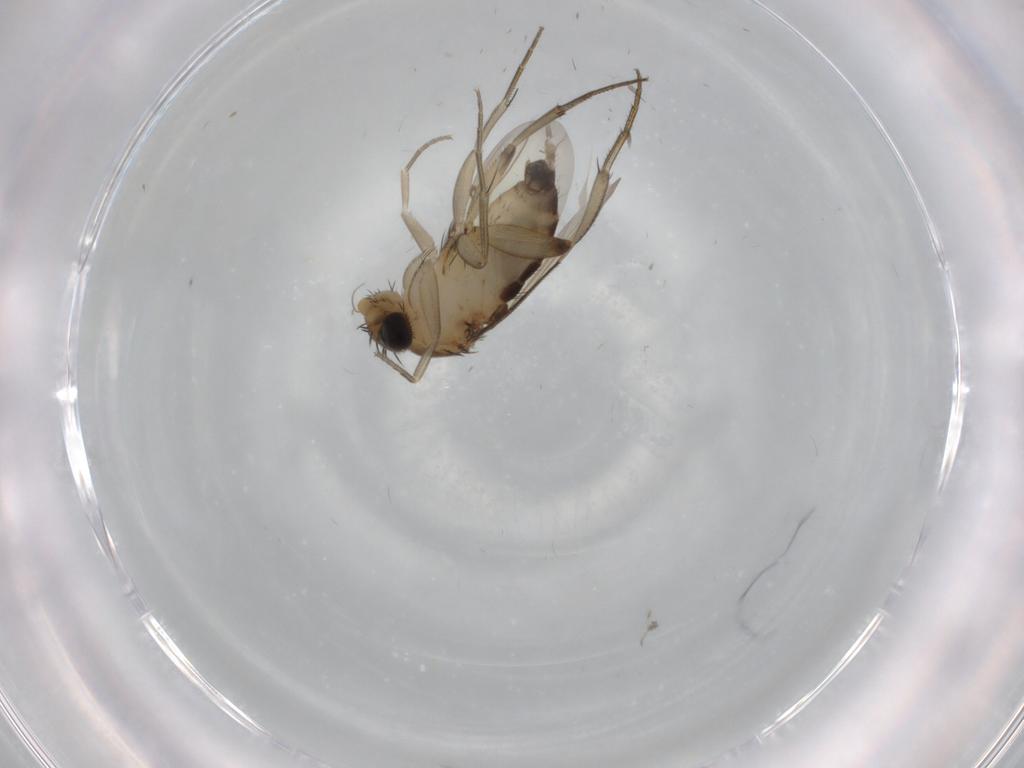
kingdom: Animalia
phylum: Arthropoda
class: Insecta
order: Diptera
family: Phoridae
